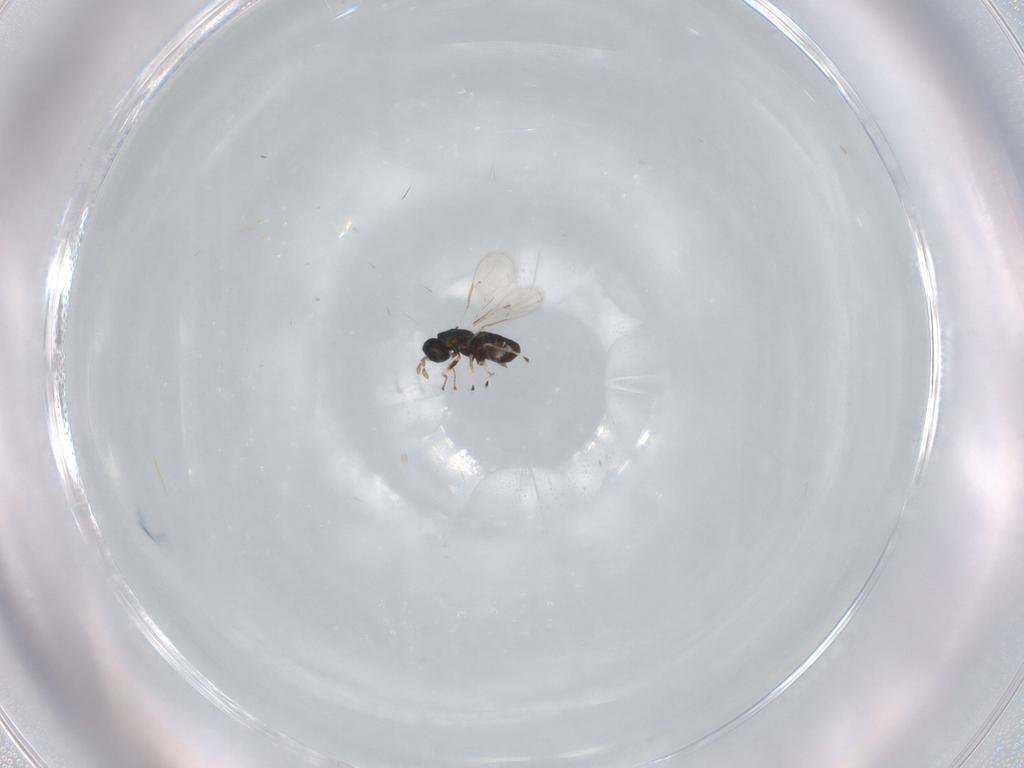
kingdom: Animalia
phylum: Arthropoda
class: Insecta
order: Hymenoptera
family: Eulophidae
